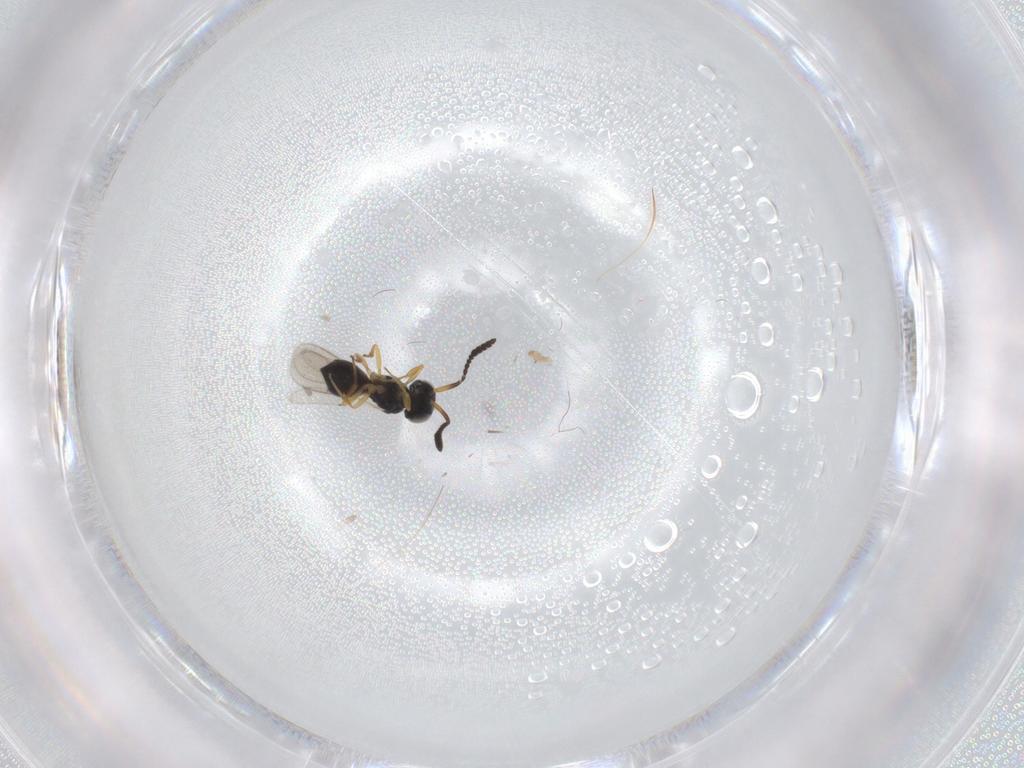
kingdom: Animalia
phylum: Arthropoda
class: Insecta
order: Hymenoptera
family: Scelionidae
